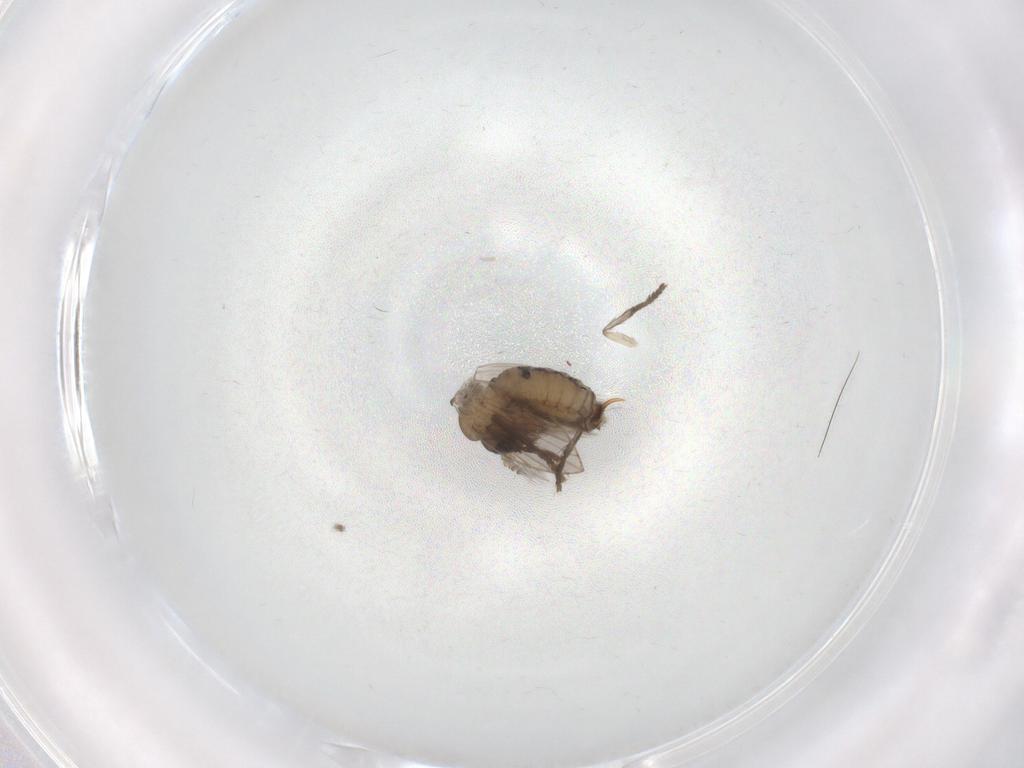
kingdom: Animalia
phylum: Arthropoda
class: Insecta
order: Diptera
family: Psychodidae
